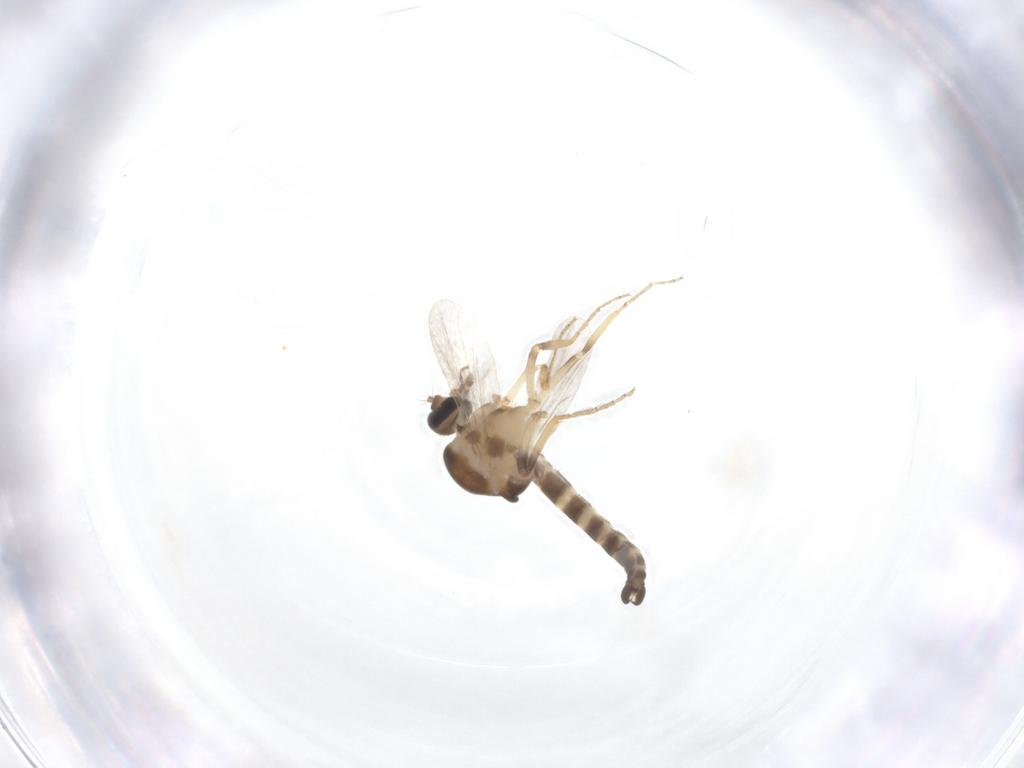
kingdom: Animalia
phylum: Arthropoda
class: Insecta
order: Diptera
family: Ceratopogonidae
